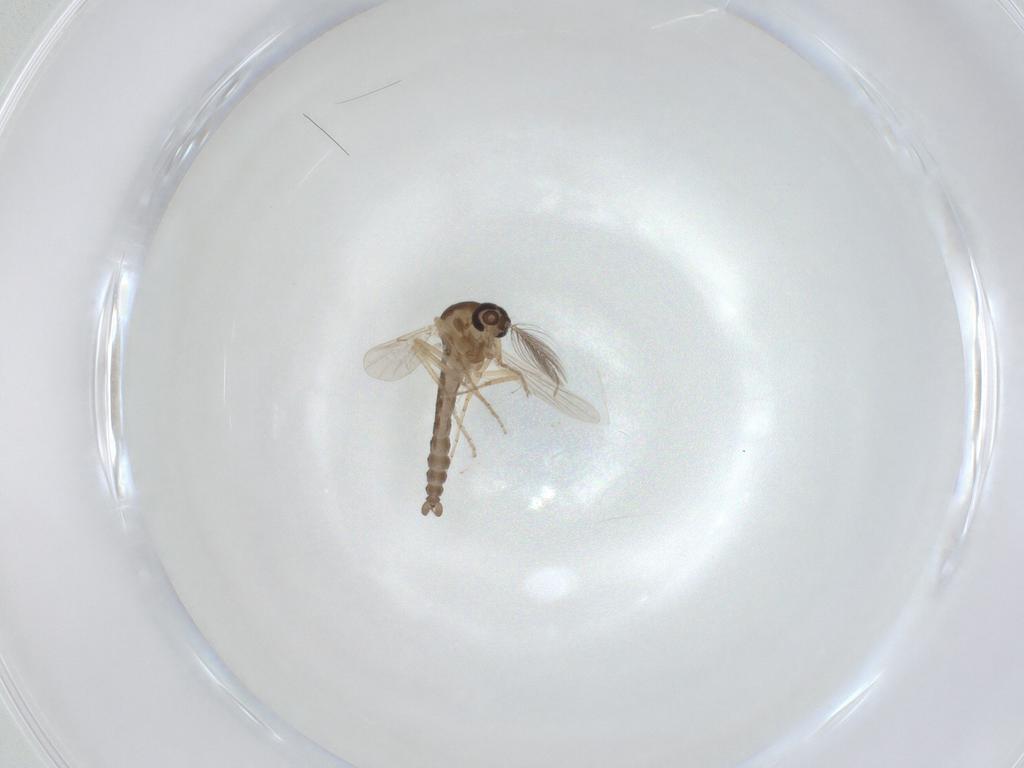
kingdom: Animalia
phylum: Arthropoda
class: Insecta
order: Diptera
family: Ceratopogonidae
